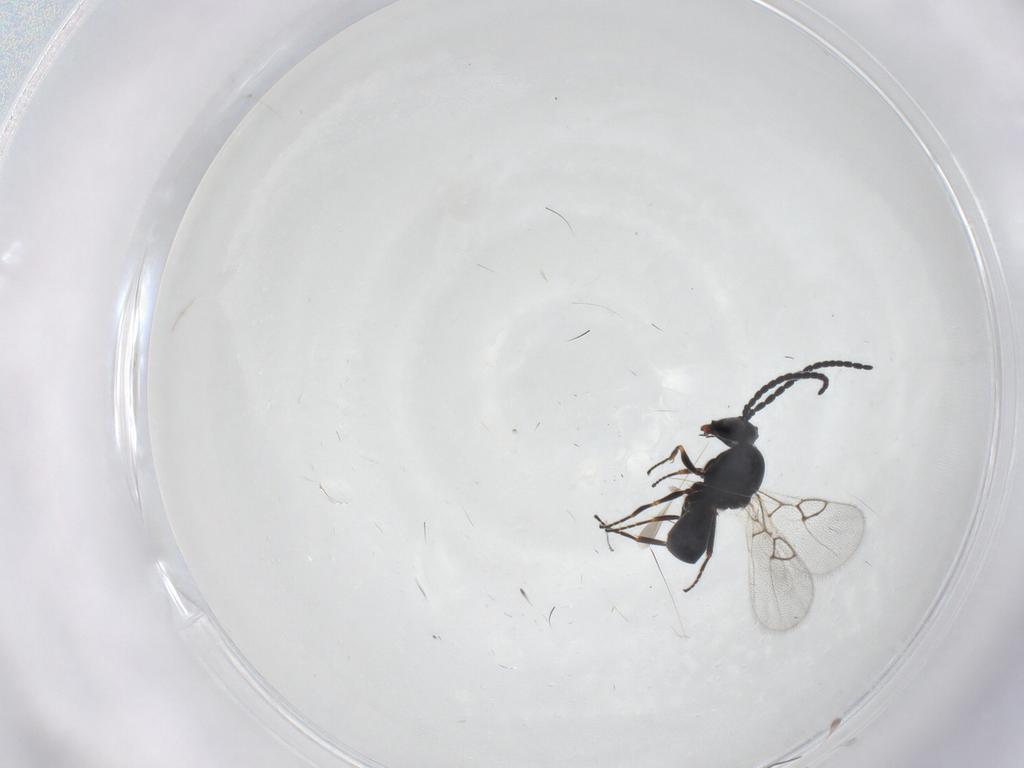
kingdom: Animalia
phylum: Arthropoda
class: Insecta
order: Hymenoptera
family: Figitidae
